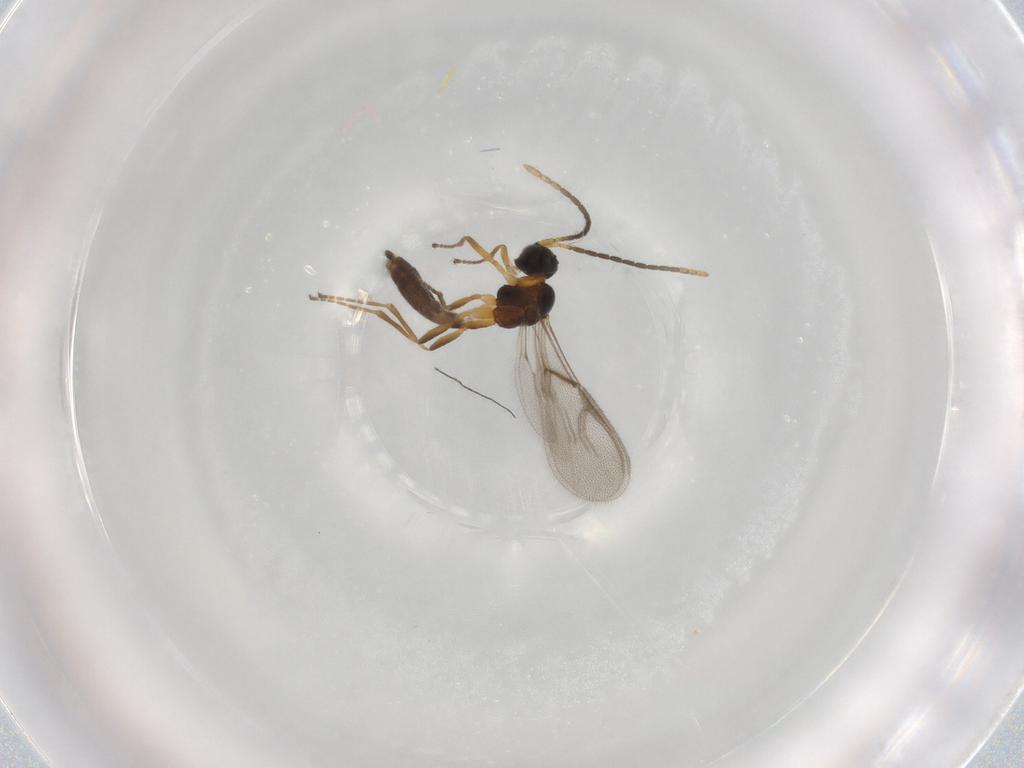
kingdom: Animalia
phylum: Arthropoda
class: Insecta
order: Hymenoptera
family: Braconidae
